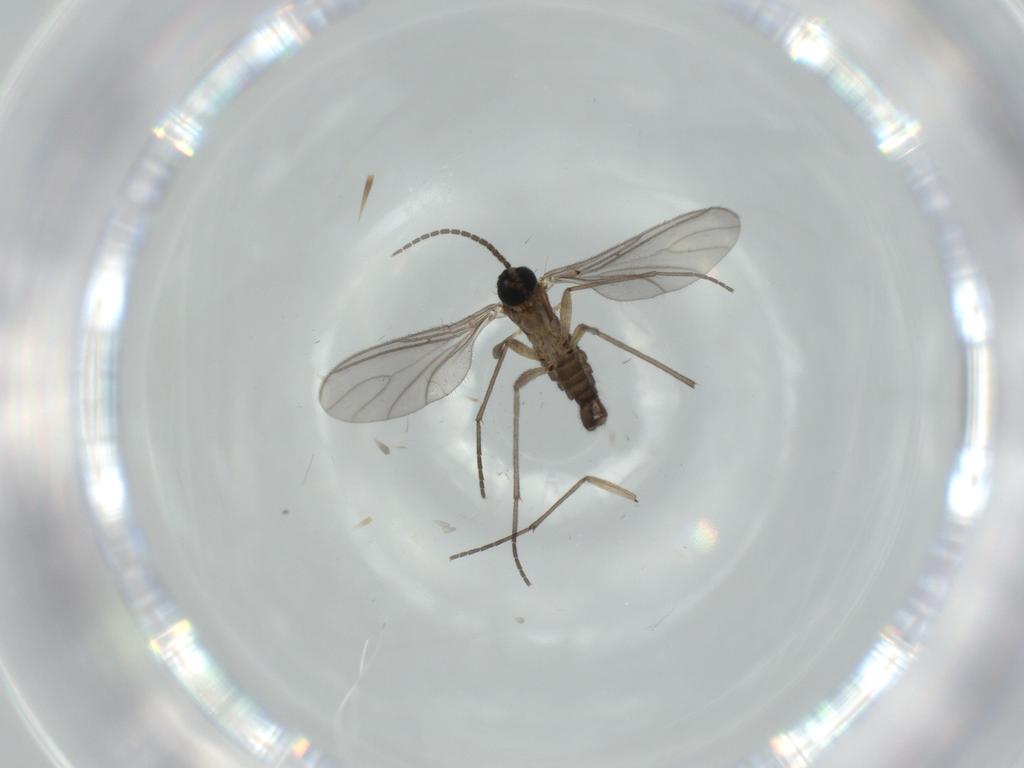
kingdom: Animalia
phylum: Arthropoda
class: Insecta
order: Diptera
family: Sciaridae
